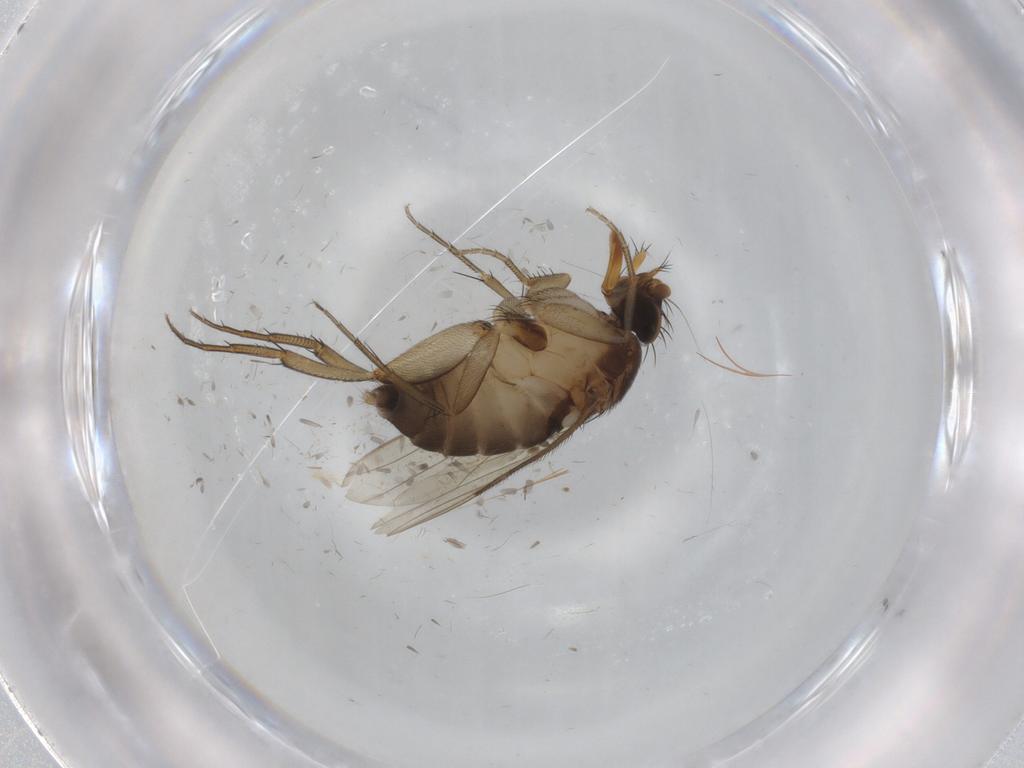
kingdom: Animalia
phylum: Arthropoda
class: Insecta
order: Diptera
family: Phoridae
